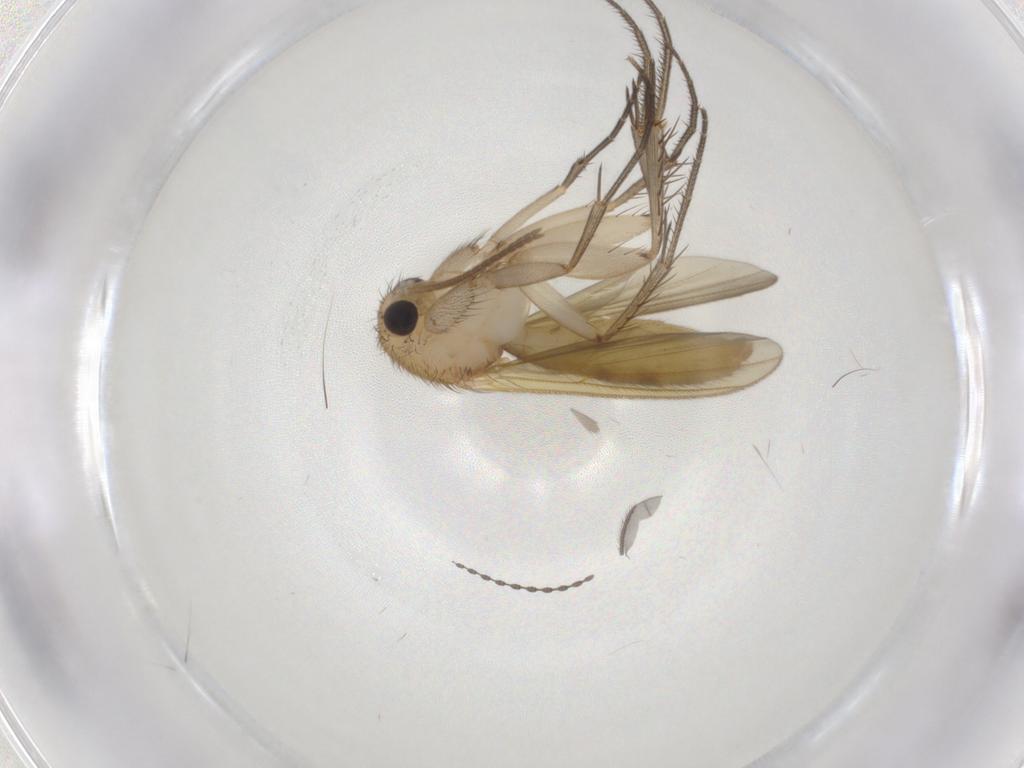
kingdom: Animalia
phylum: Arthropoda
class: Insecta
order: Diptera
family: Cecidomyiidae
